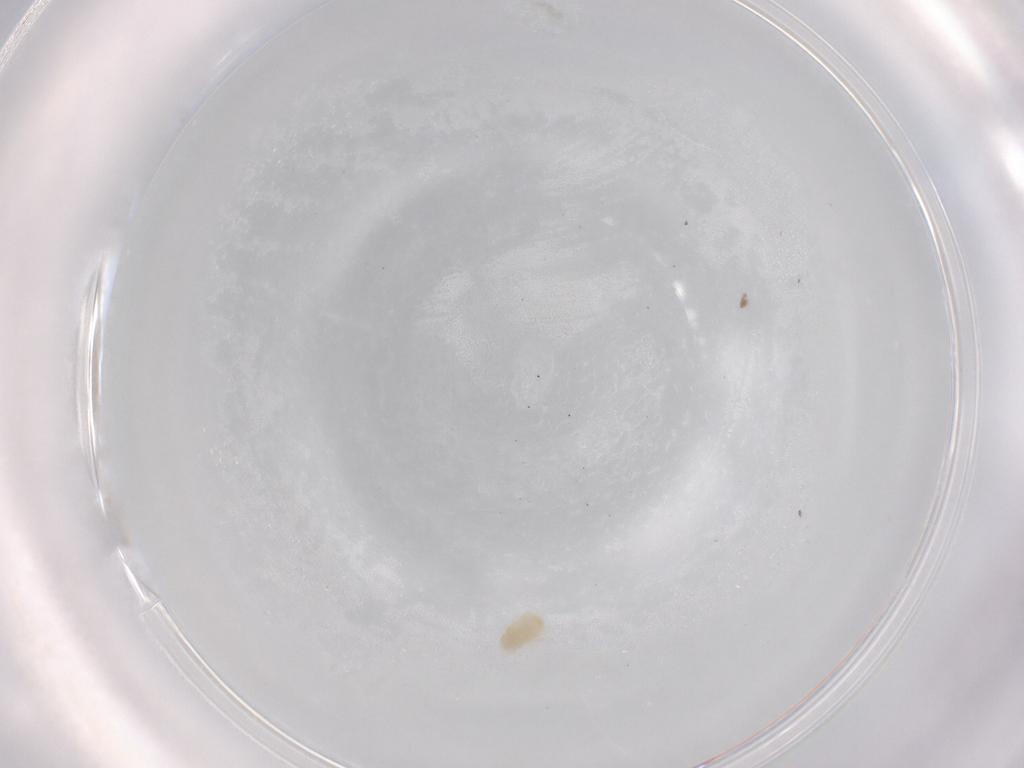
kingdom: Animalia
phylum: Arthropoda
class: Arachnida
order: Trombidiformes
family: Eupodidae
